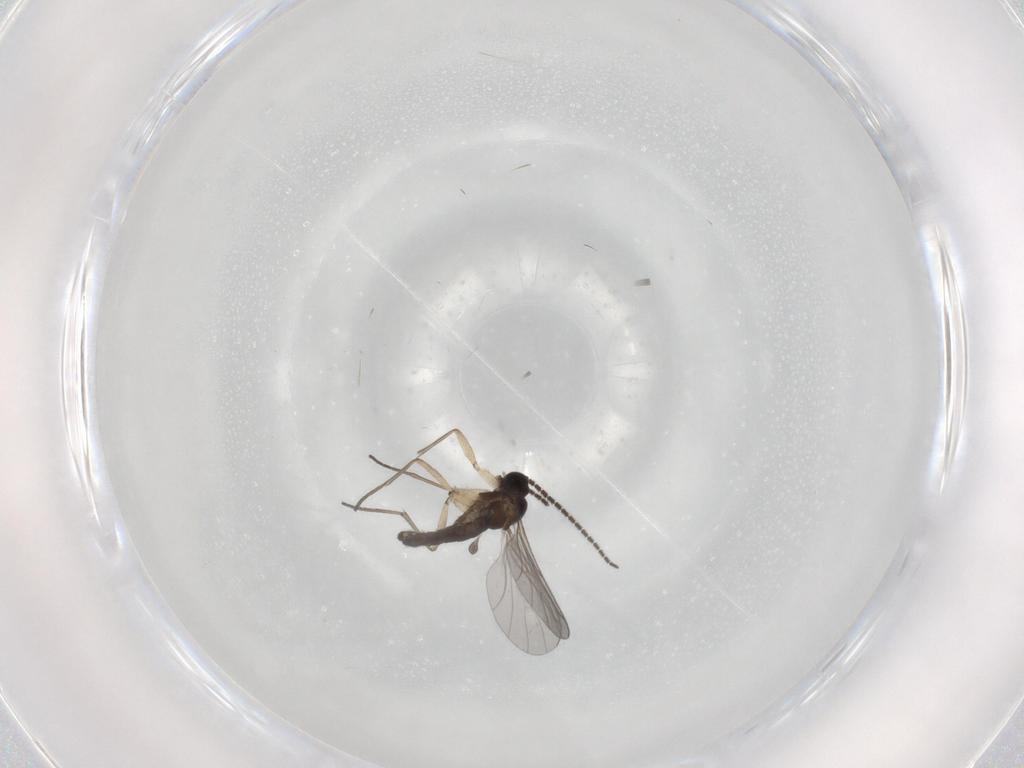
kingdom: Animalia
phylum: Arthropoda
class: Insecta
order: Diptera
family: Sciaridae
